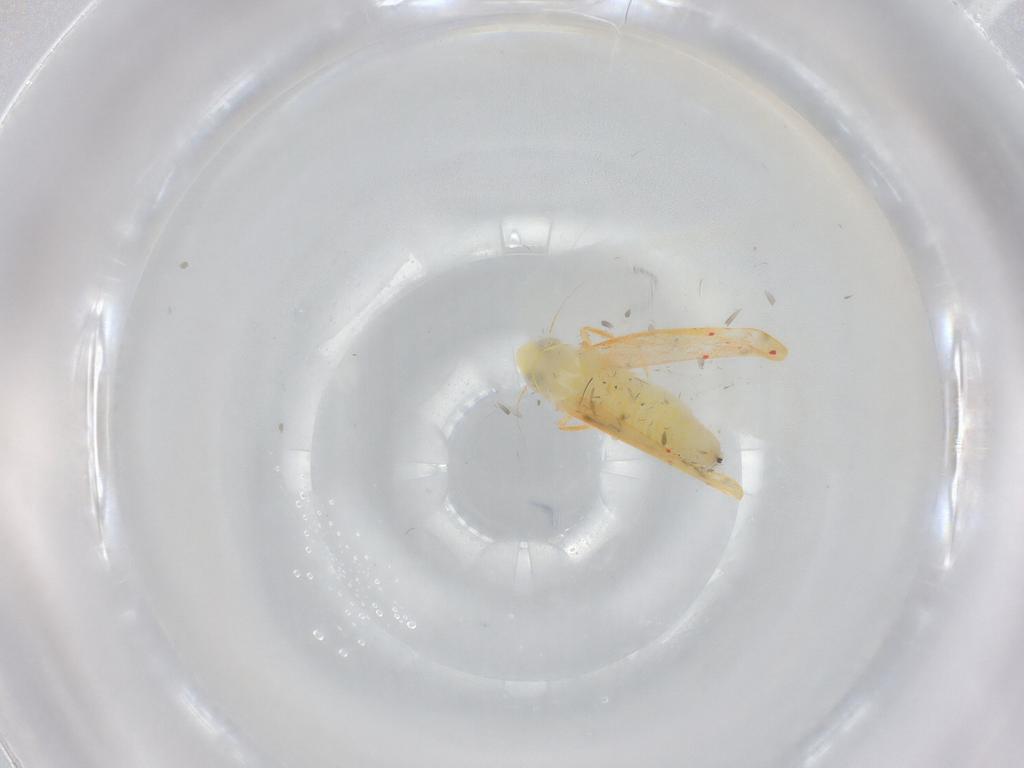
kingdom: Animalia
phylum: Arthropoda
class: Insecta
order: Hemiptera
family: Cicadellidae
